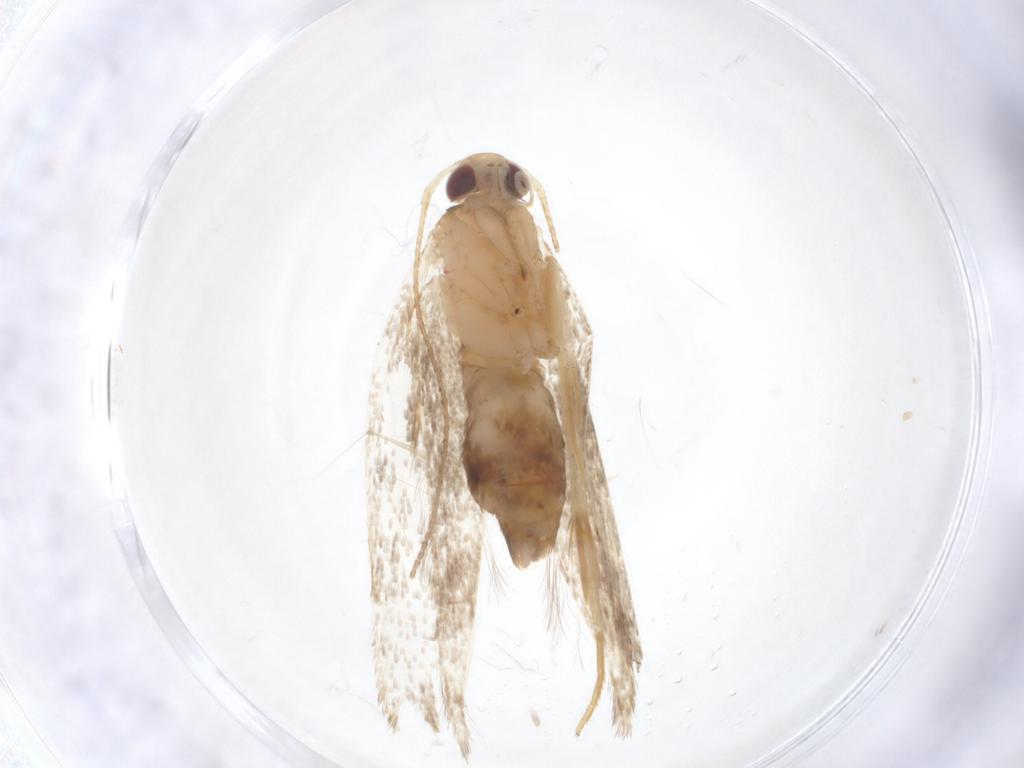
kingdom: Animalia
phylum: Arthropoda
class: Insecta
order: Lepidoptera
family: Cosmopterigidae
